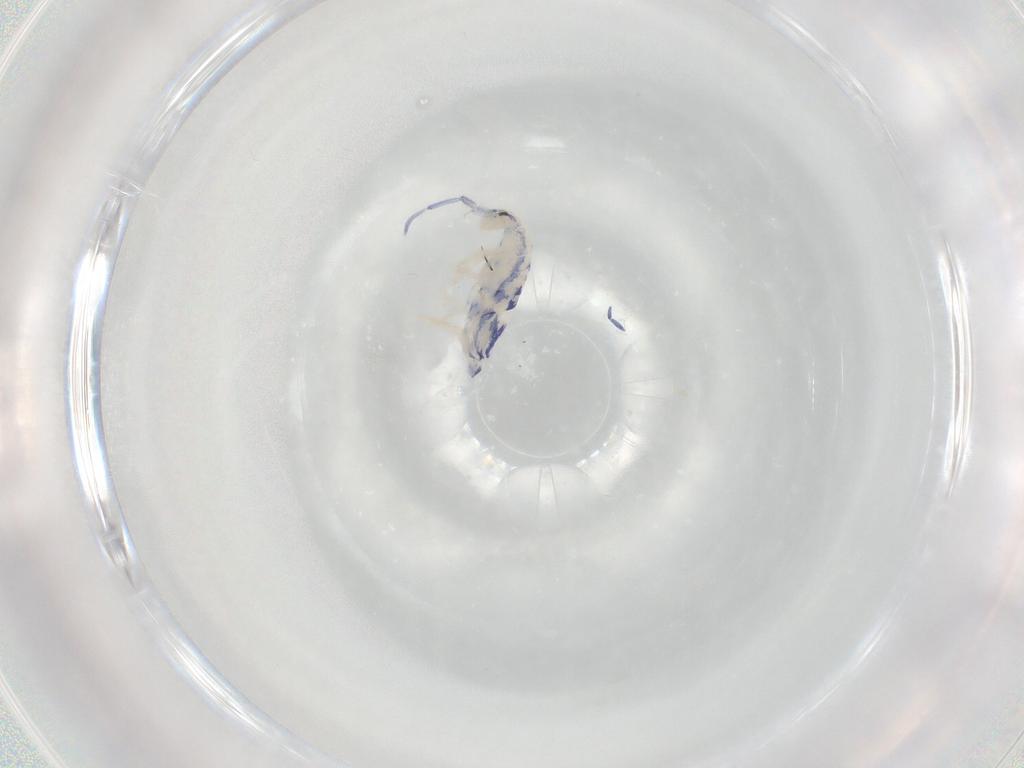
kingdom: Animalia
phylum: Arthropoda
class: Collembola
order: Entomobryomorpha
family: Entomobryidae
